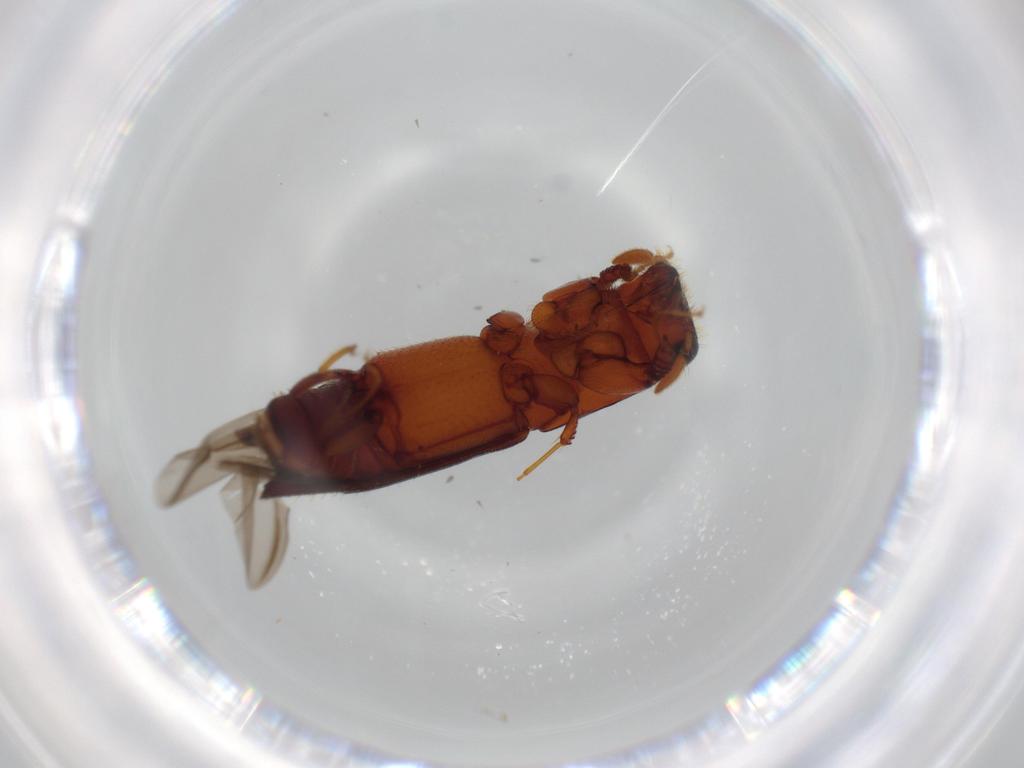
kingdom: Animalia
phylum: Arthropoda
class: Insecta
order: Coleoptera
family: Curculionidae
